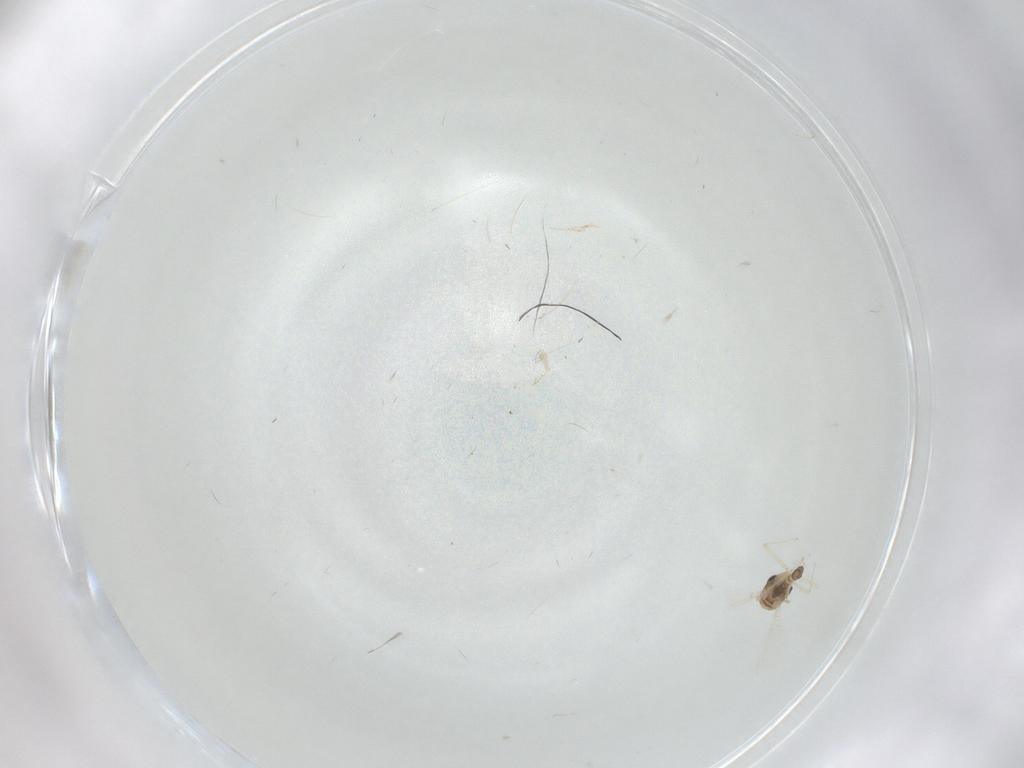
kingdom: Animalia
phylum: Arthropoda
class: Insecta
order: Diptera
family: Chironomidae
